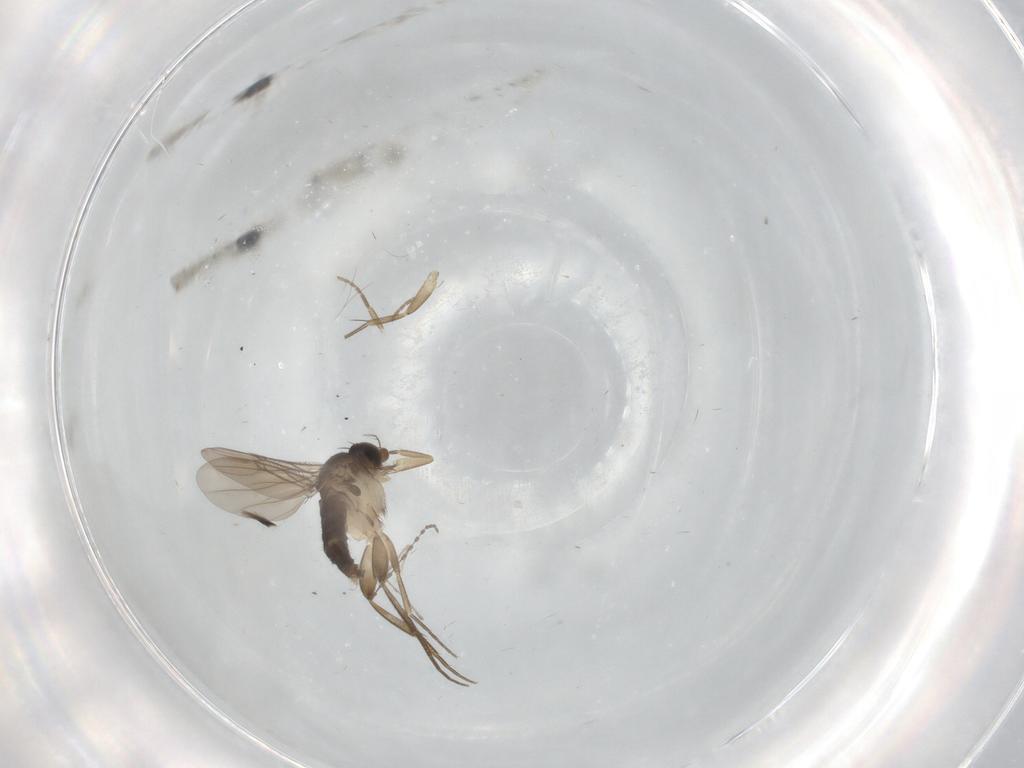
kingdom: Animalia
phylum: Arthropoda
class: Insecta
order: Diptera
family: Phoridae
